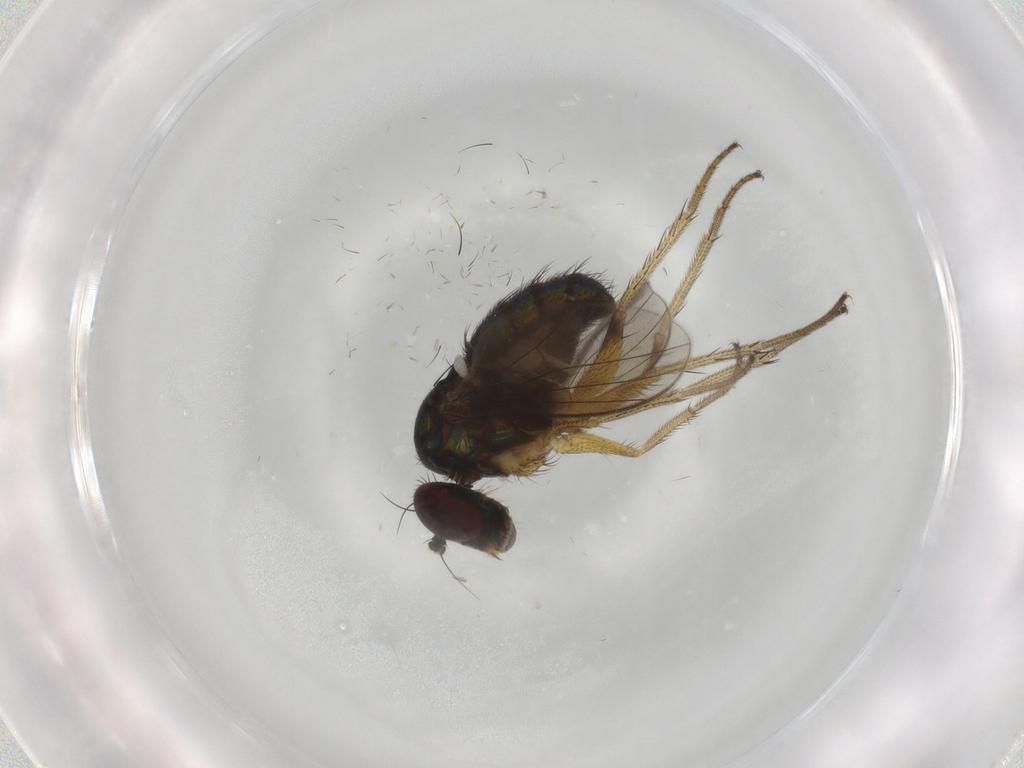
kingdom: Animalia
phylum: Arthropoda
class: Insecta
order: Diptera
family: Dolichopodidae
